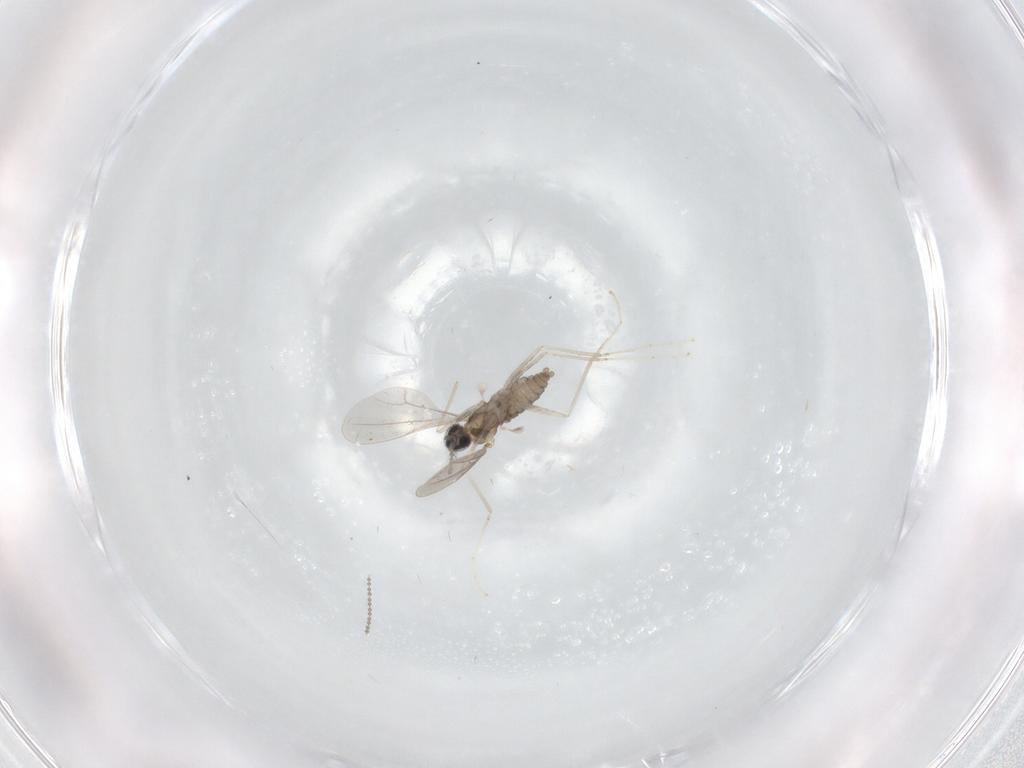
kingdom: Animalia
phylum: Arthropoda
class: Insecta
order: Diptera
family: Cecidomyiidae
